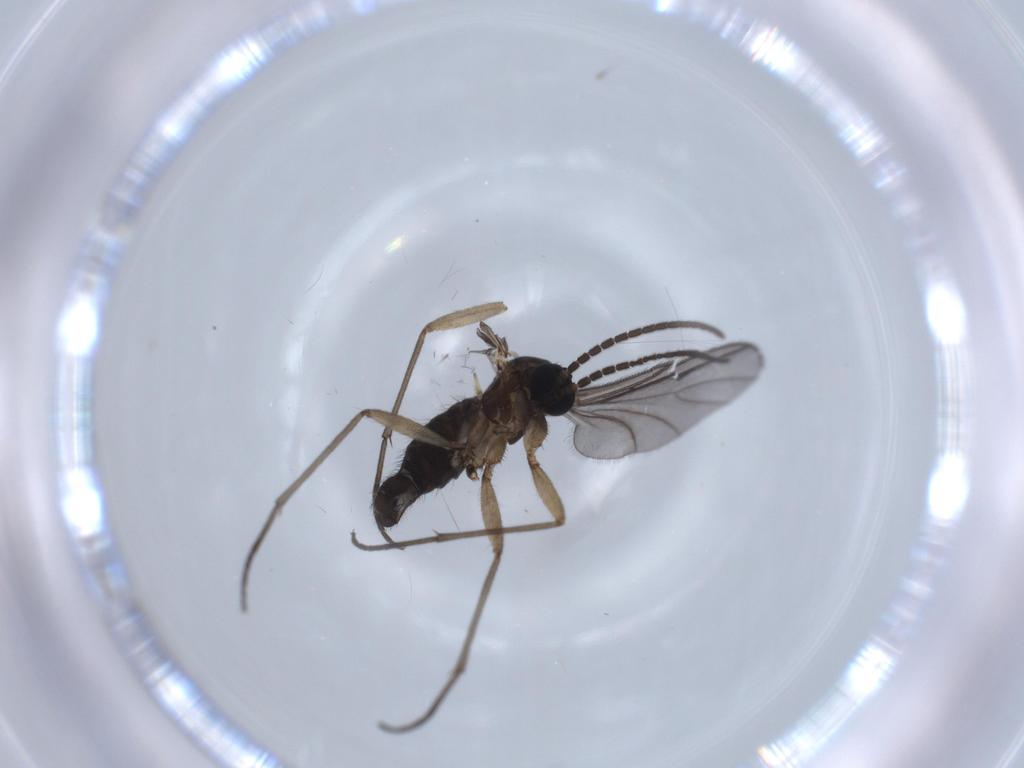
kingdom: Animalia
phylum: Arthropoda
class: Insecta
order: Diptera
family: Sciaridae
